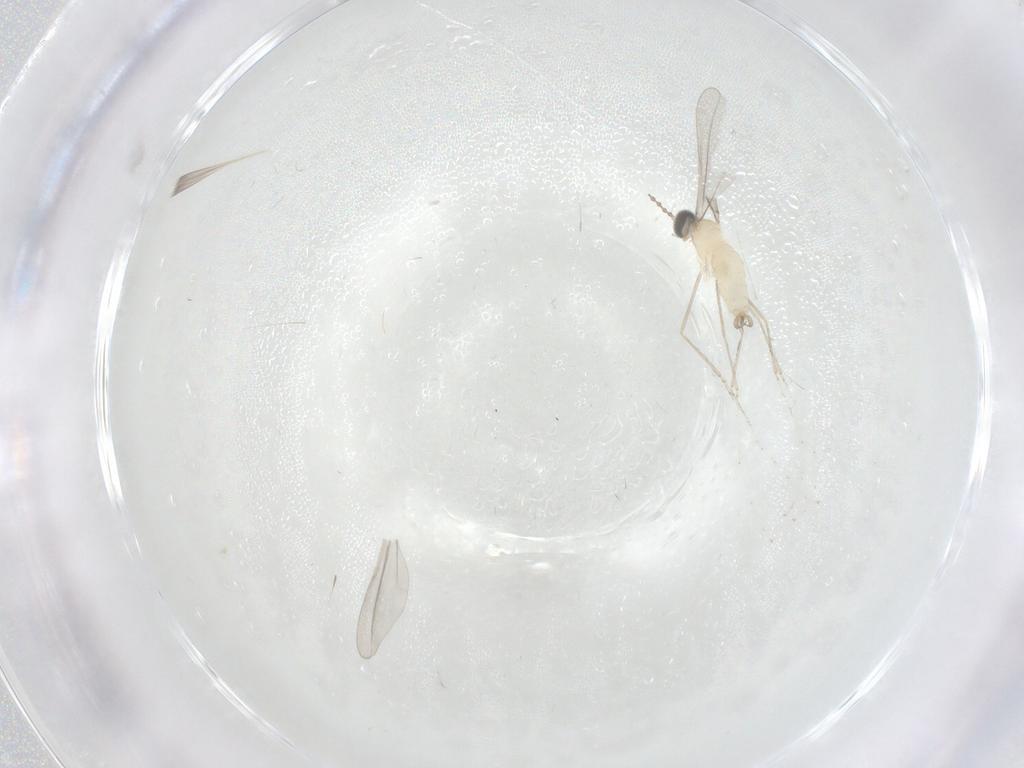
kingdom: Animalia
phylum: Arthropoda
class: Insecta
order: Diptera
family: Cecidomyiidae
